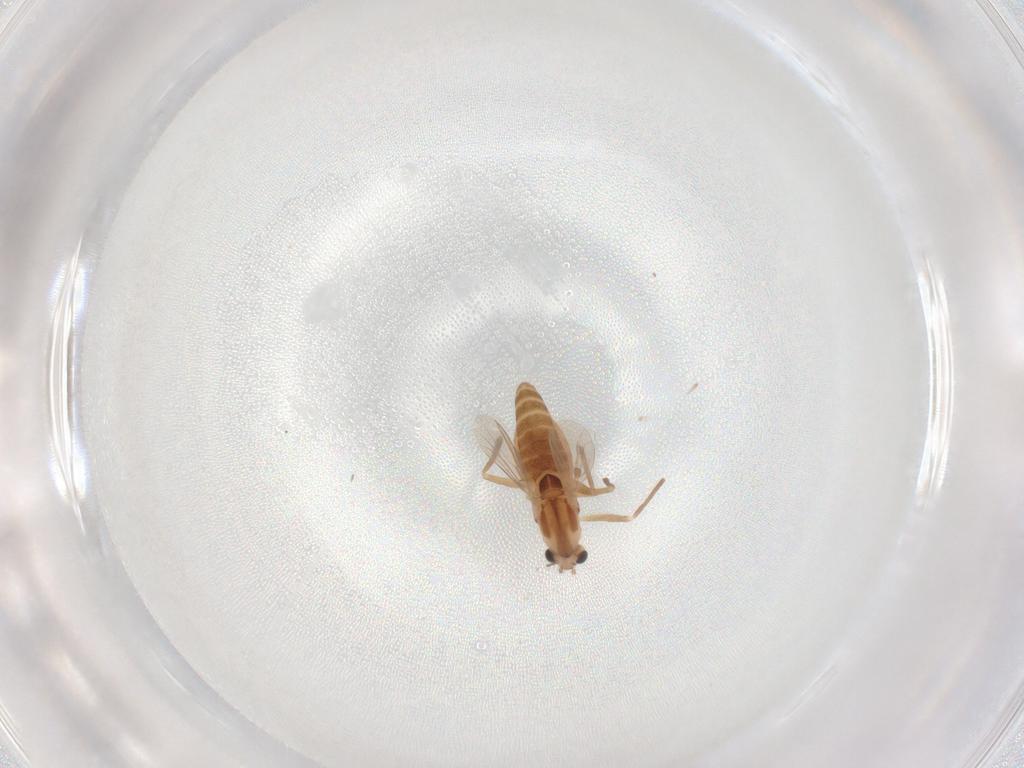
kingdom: Animalia
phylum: Arthropoda
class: Insecta
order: Diptera
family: Chironomidae
